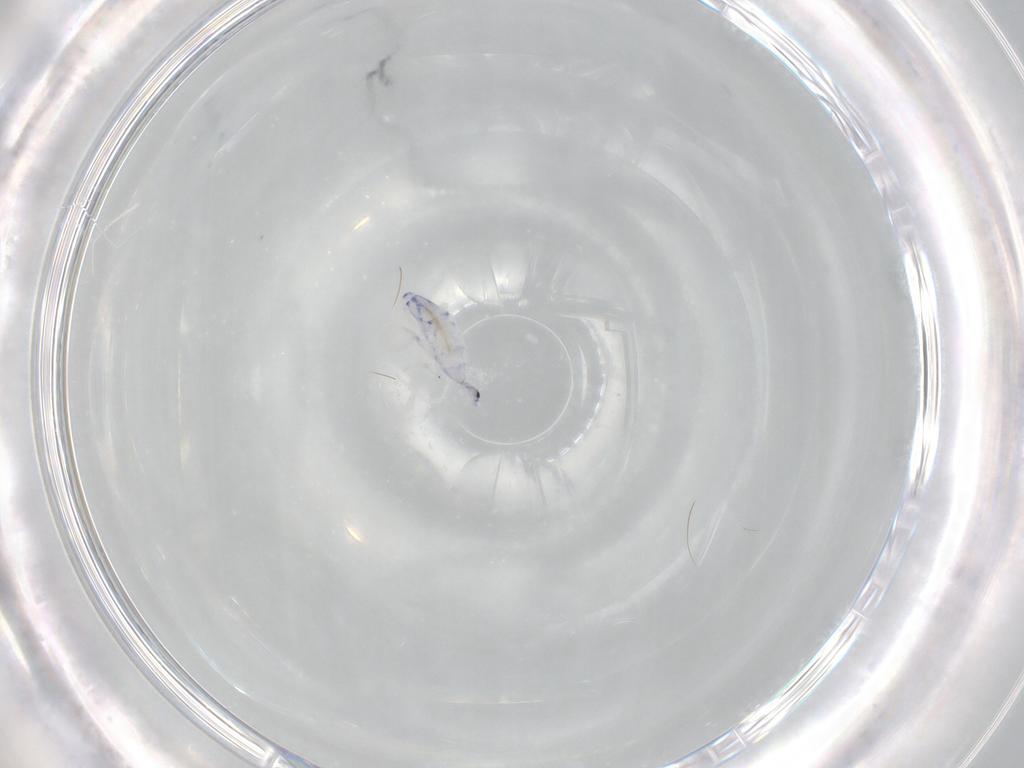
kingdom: Animalia
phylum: Arthropoda
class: Collembola
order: Entomobryomorpha
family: Entomobryidae
